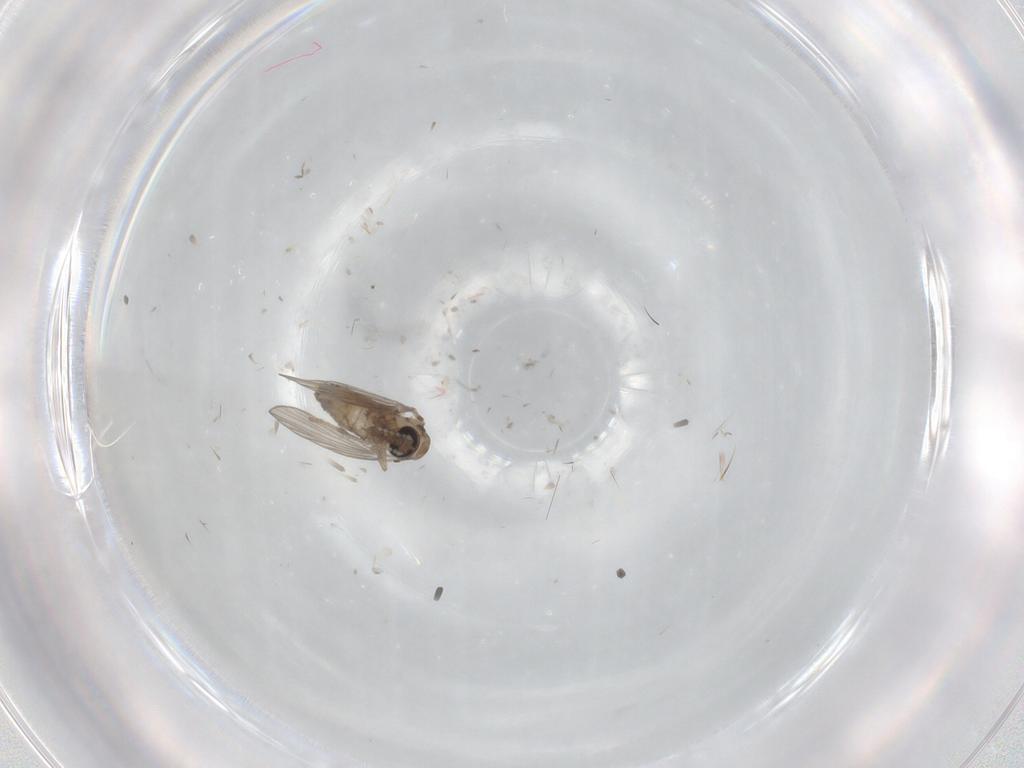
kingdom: Animalia
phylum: Arthropoda
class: Insecta
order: Diptera
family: Psychodidae
